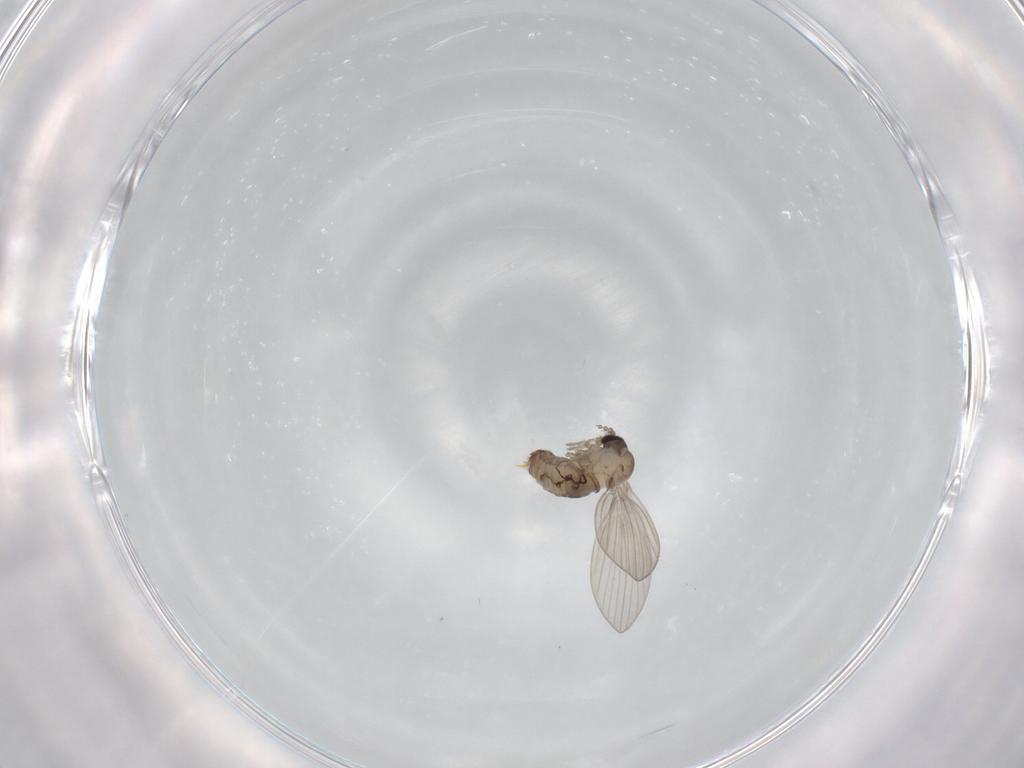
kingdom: Animalia
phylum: Arthropoda
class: Insecta
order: Diptera
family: Psychodidae
